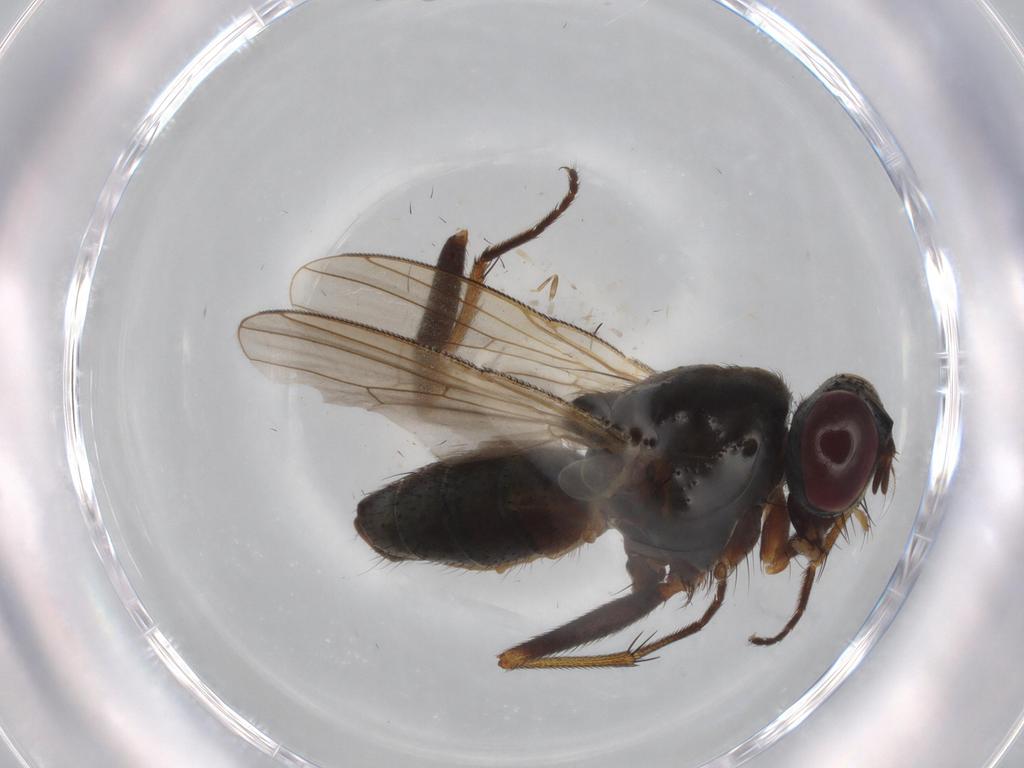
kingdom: Animalia
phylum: Arthropoda
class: Insecta
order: Diptera
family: Muscidae
